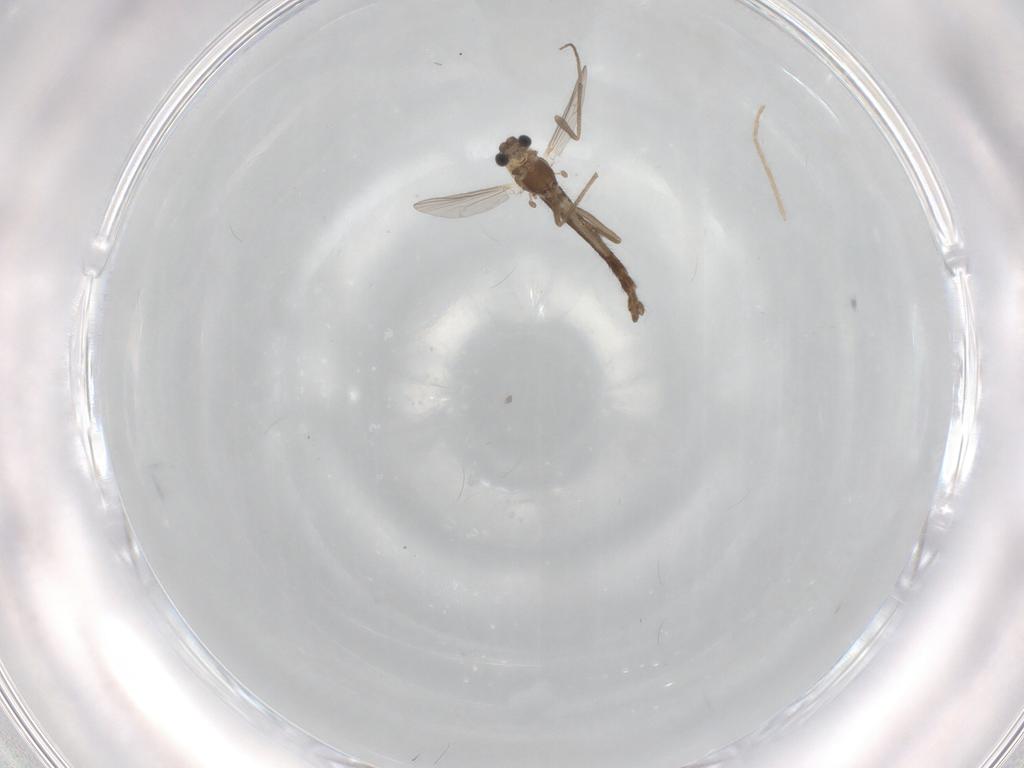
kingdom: Animalia
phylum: Arthropoda
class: Insecta
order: Diptera
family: Chironomidae
